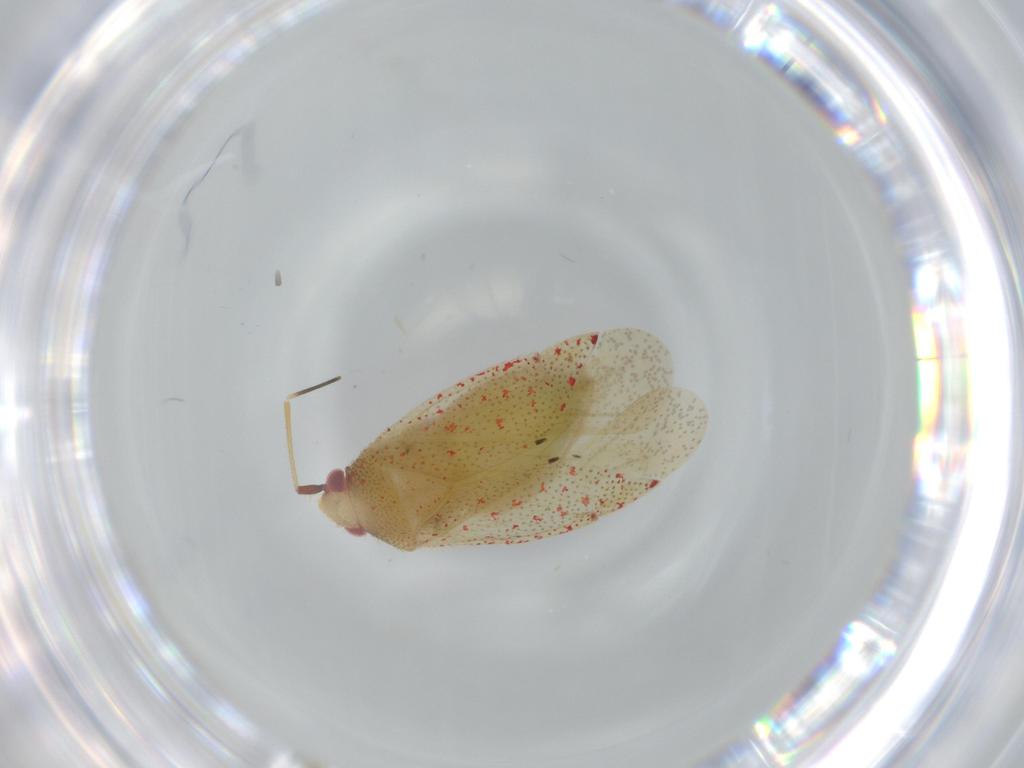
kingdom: Animalia
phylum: Arthropoda
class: Insecta
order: Hemiptera
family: Miridae
